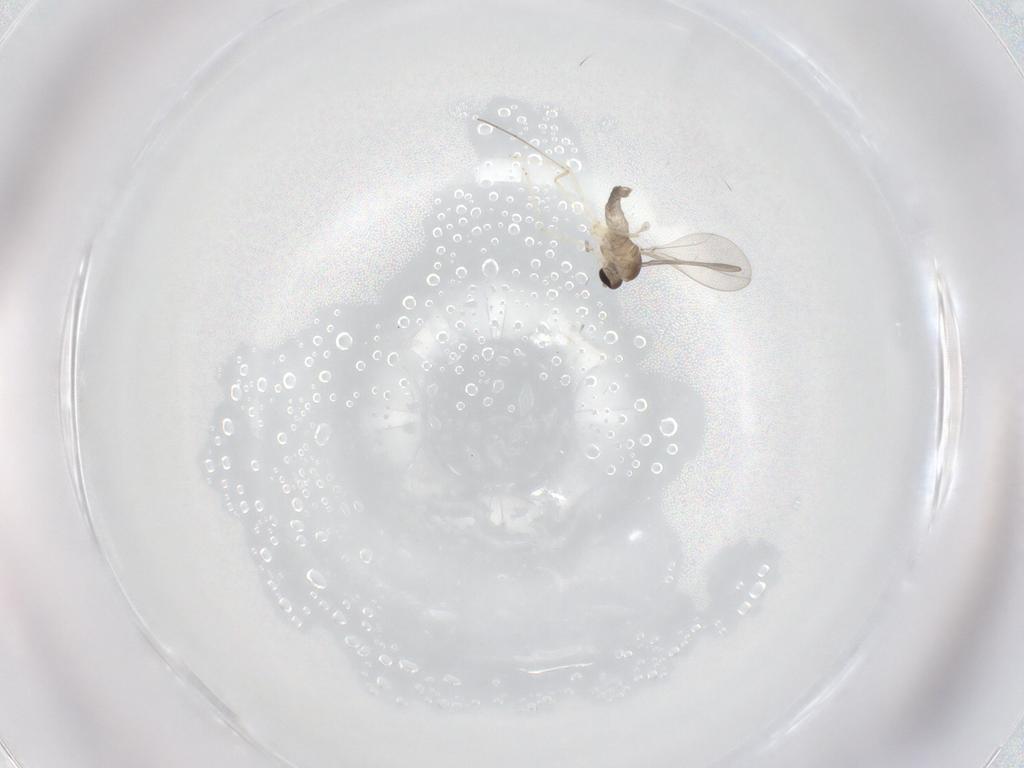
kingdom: Animalia
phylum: Arthropoda
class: Insecta
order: Diptera
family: Cecidomyiidae
